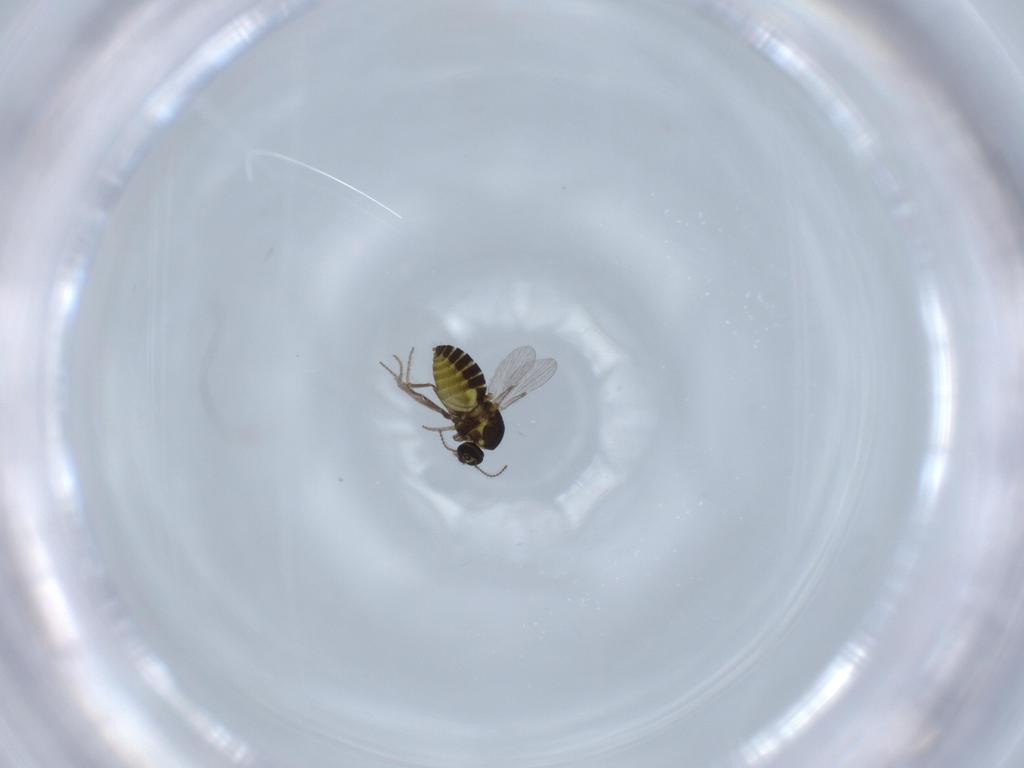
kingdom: Animalia
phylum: Arthropoda
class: Insecta
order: Diptera
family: Dolichopodidae
